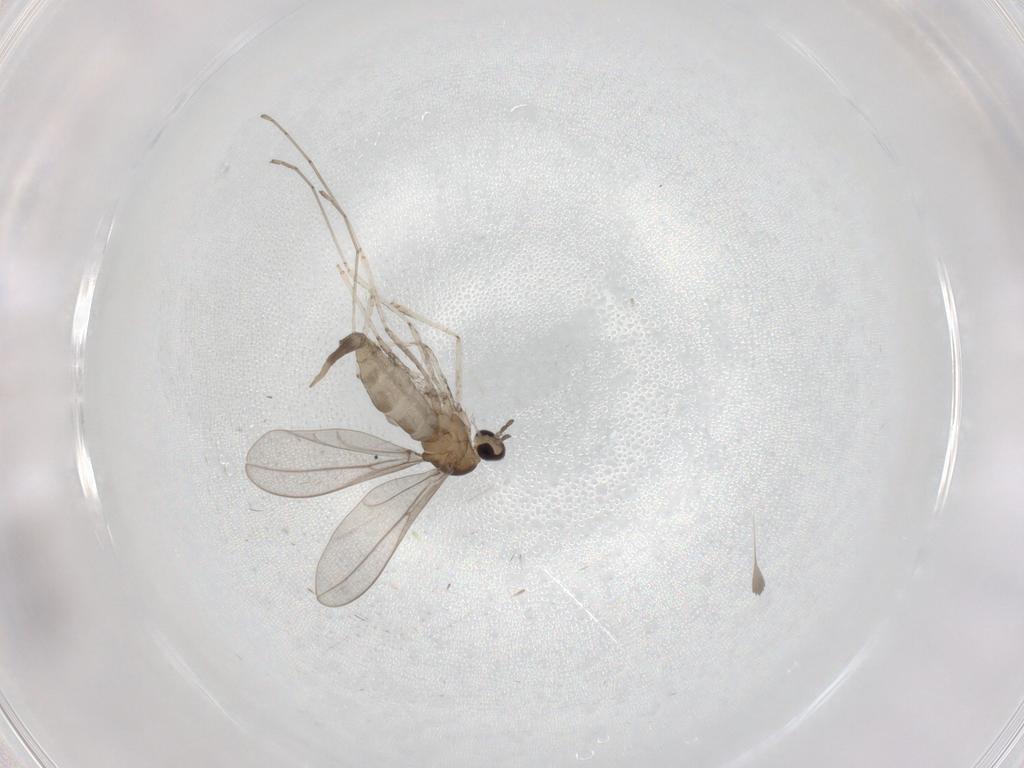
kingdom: Animalia
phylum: Arthropoda
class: Insecta
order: Diptera
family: Cecidomyiidae
